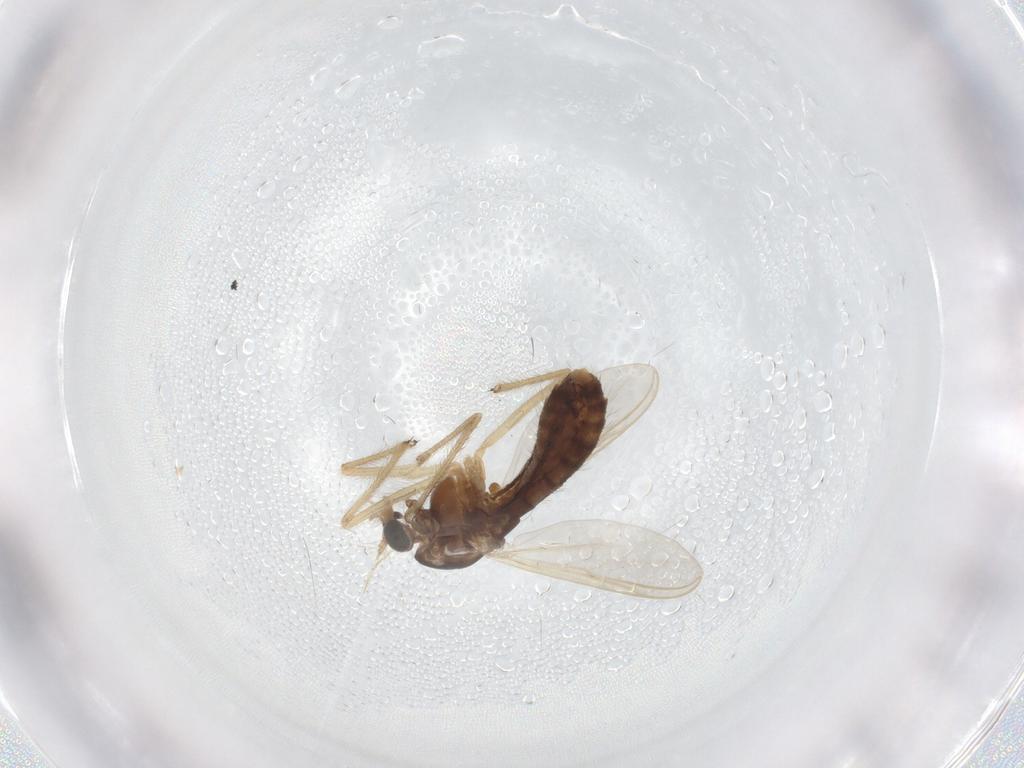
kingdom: Animalia
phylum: Arthropoda
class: Insecta
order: Diptera
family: Chironomidae
